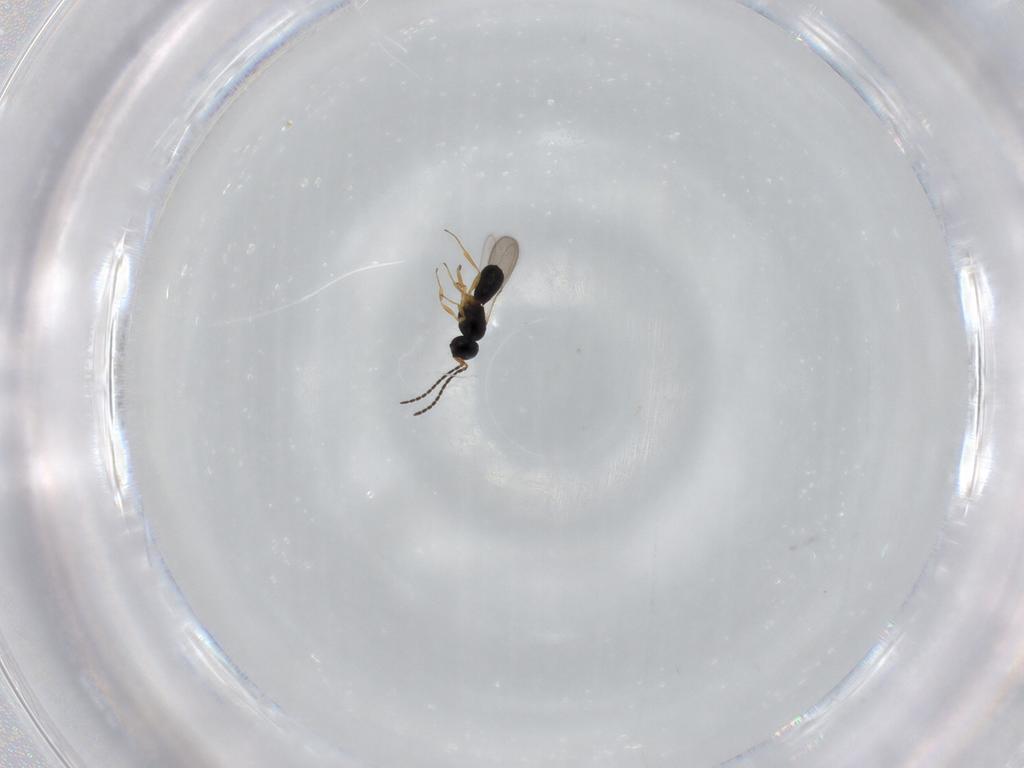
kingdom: Animalia
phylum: Arthropoda
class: Insecta
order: Hymenoptera
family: Scelionidae
